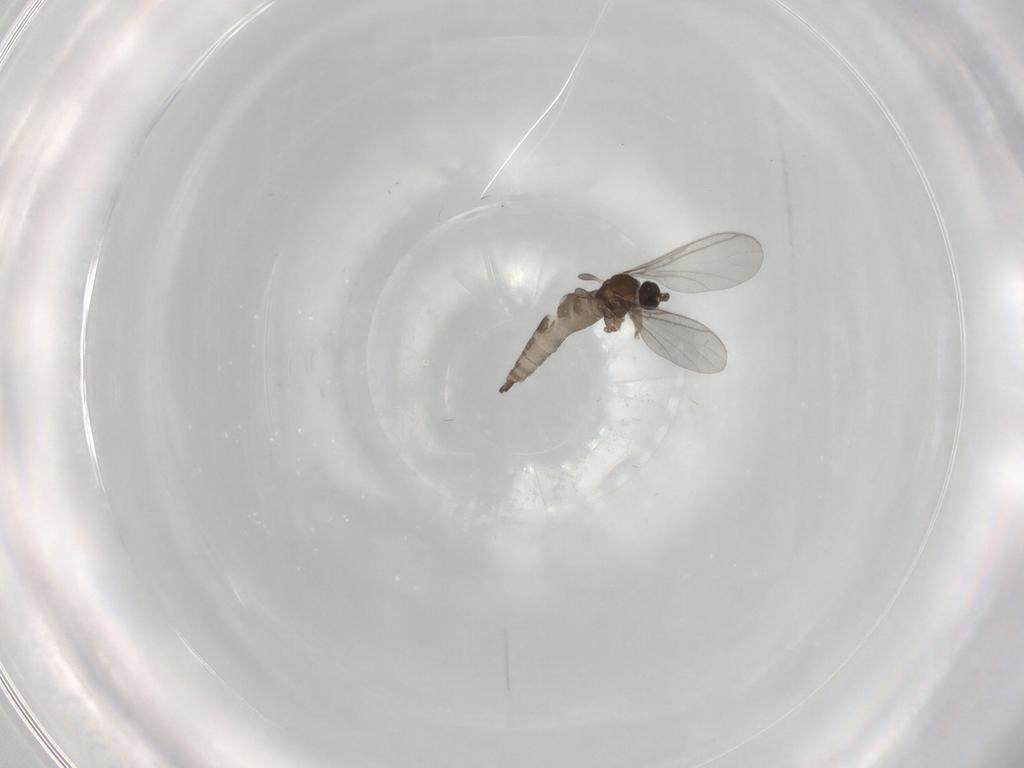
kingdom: Animalia
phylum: Arthropoda
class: Insecta
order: Diptera
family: Sciaridae
